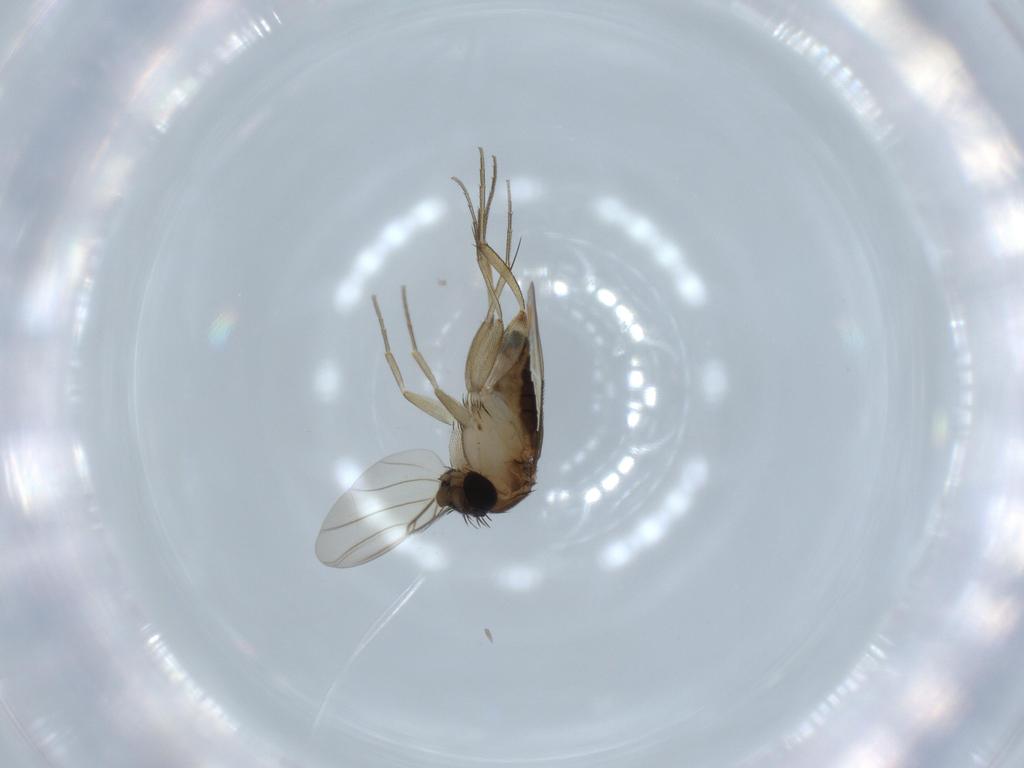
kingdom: Animalia
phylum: Arthropoda
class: Insecta
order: Diptera
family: Phoridae
